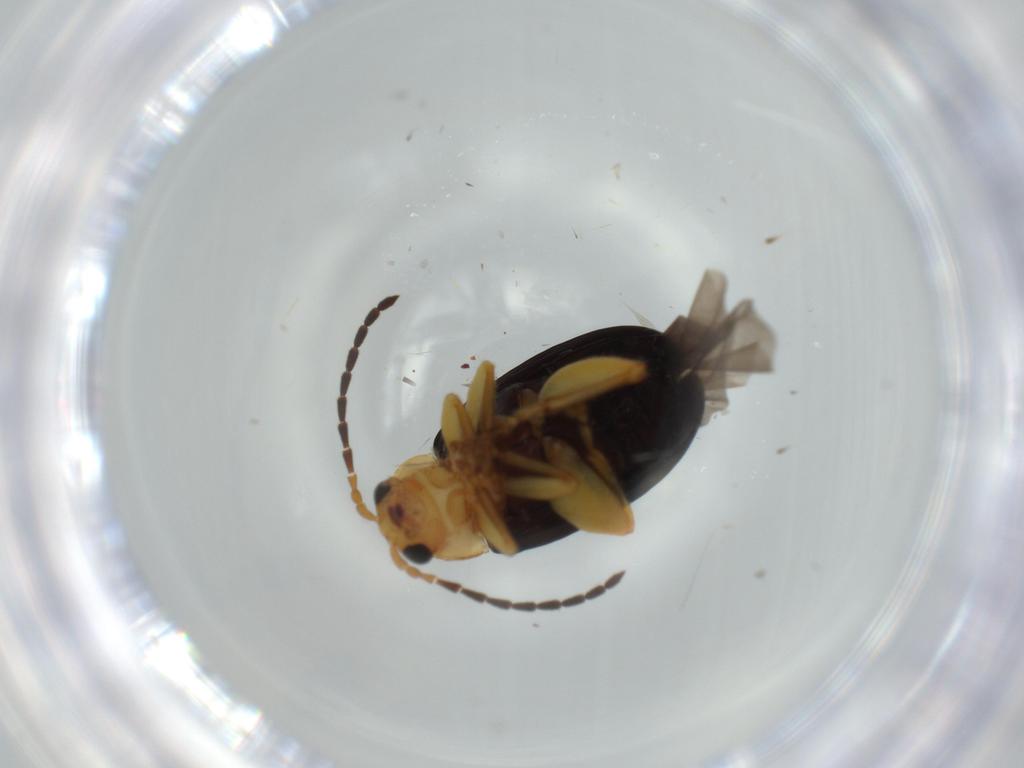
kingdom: Animalia
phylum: Arthropoda
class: Insecta
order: Coleoptera
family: Chrysomelidae
